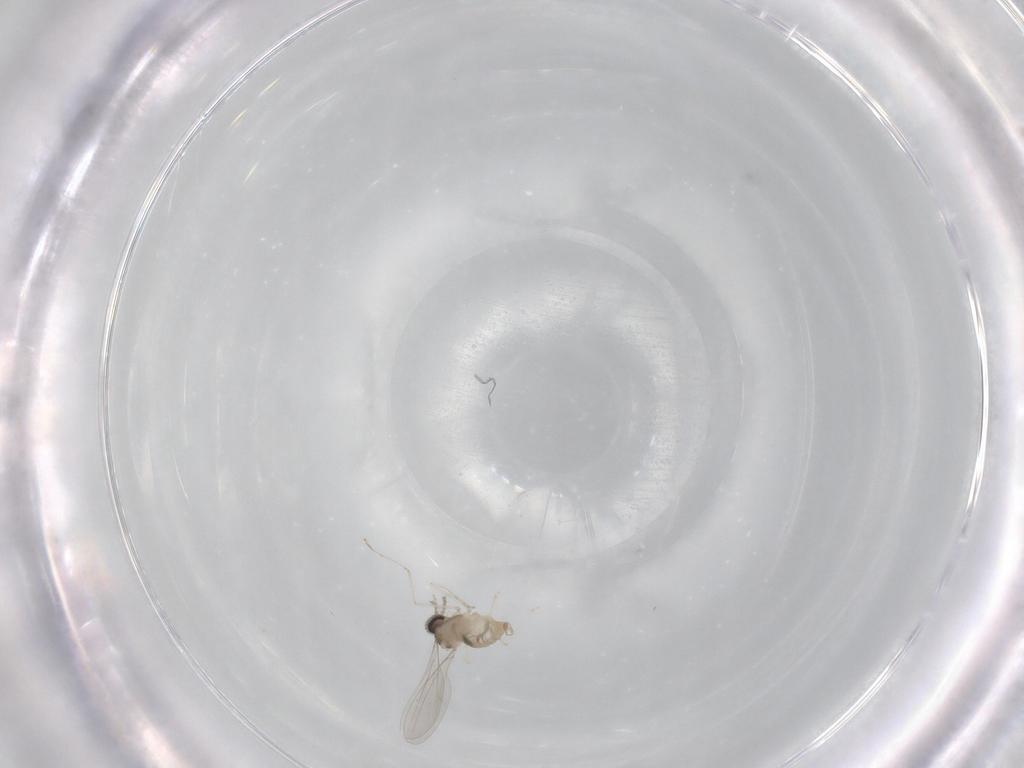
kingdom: Animalia
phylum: Arthropoda
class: Insecta
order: Diptera
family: Cecidomyiidae
